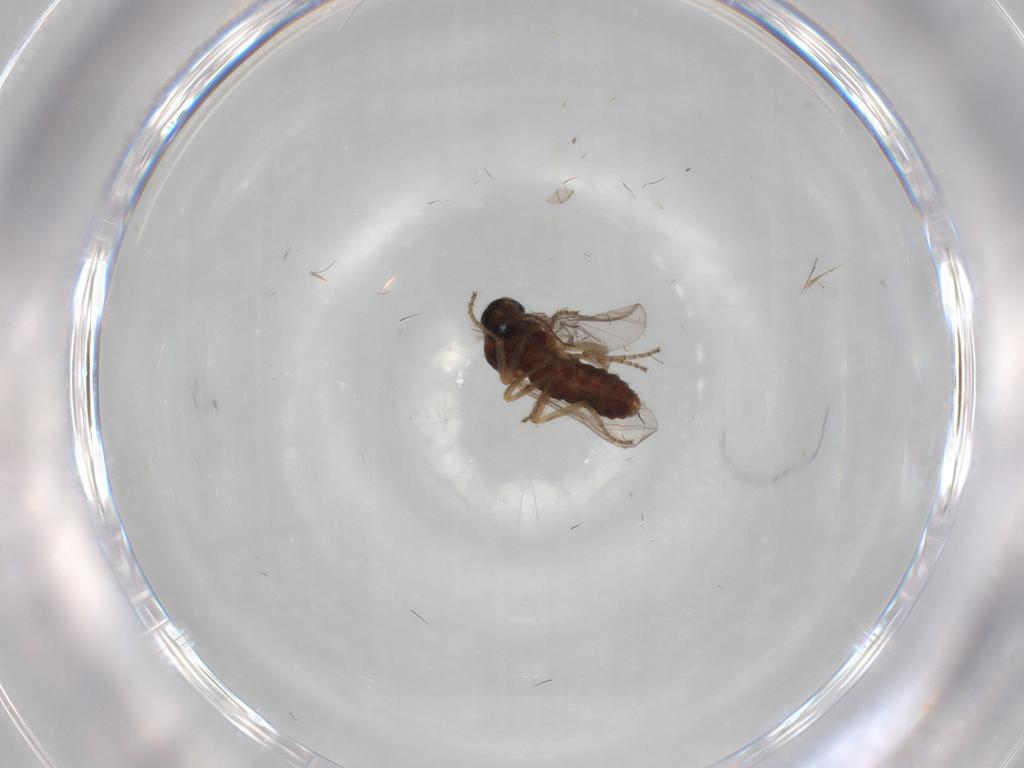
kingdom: Animalia
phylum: Arthropoda
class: Insecta
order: Diptera
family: Ceratopogonidae
